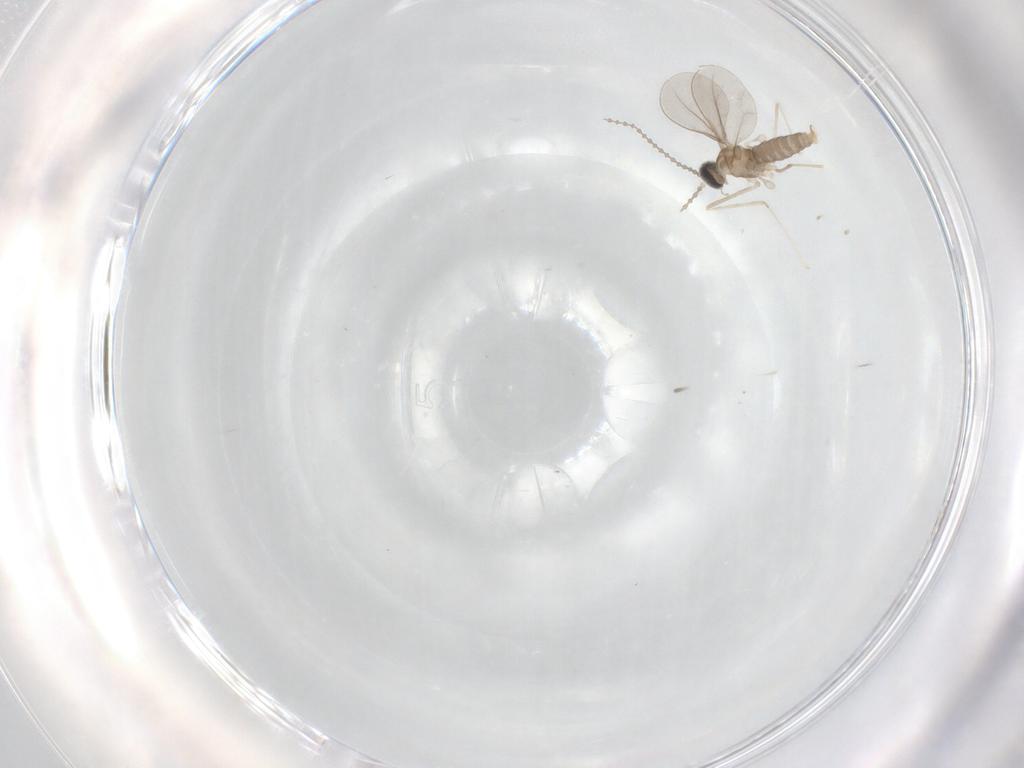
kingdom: Animalia
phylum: Arthropoda
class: Insecta
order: Diptera
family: Cecidomyiidae
